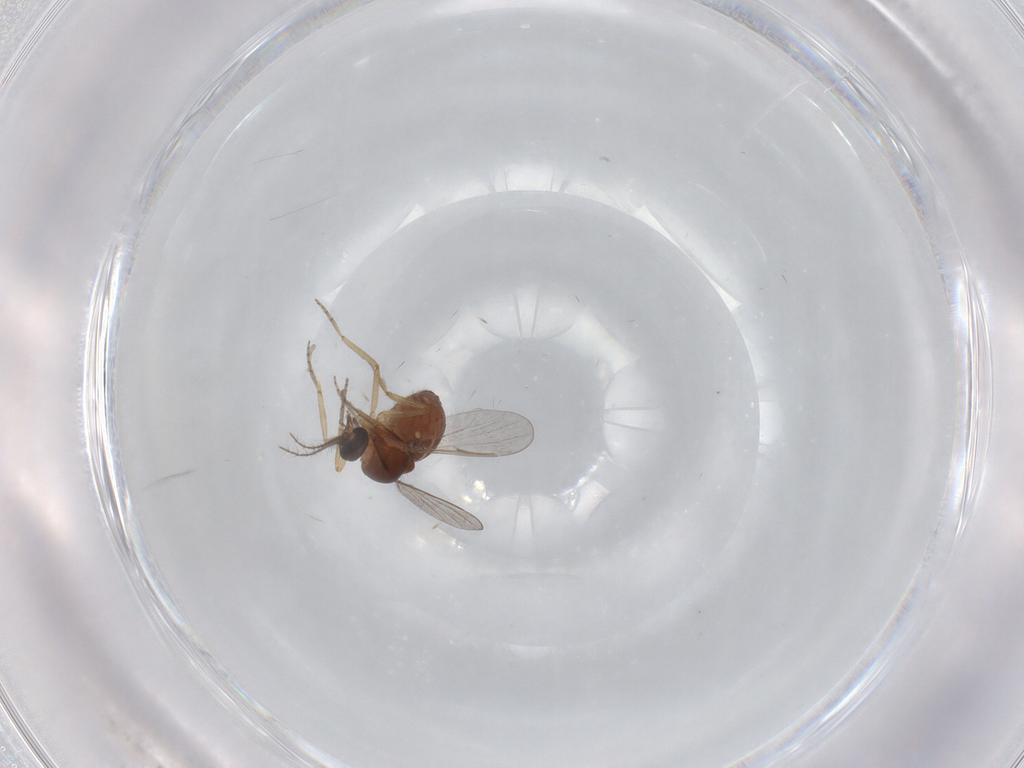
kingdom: Animalia
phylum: Arthropoda
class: Insecta
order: Diptera
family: Ceratopogonidae
